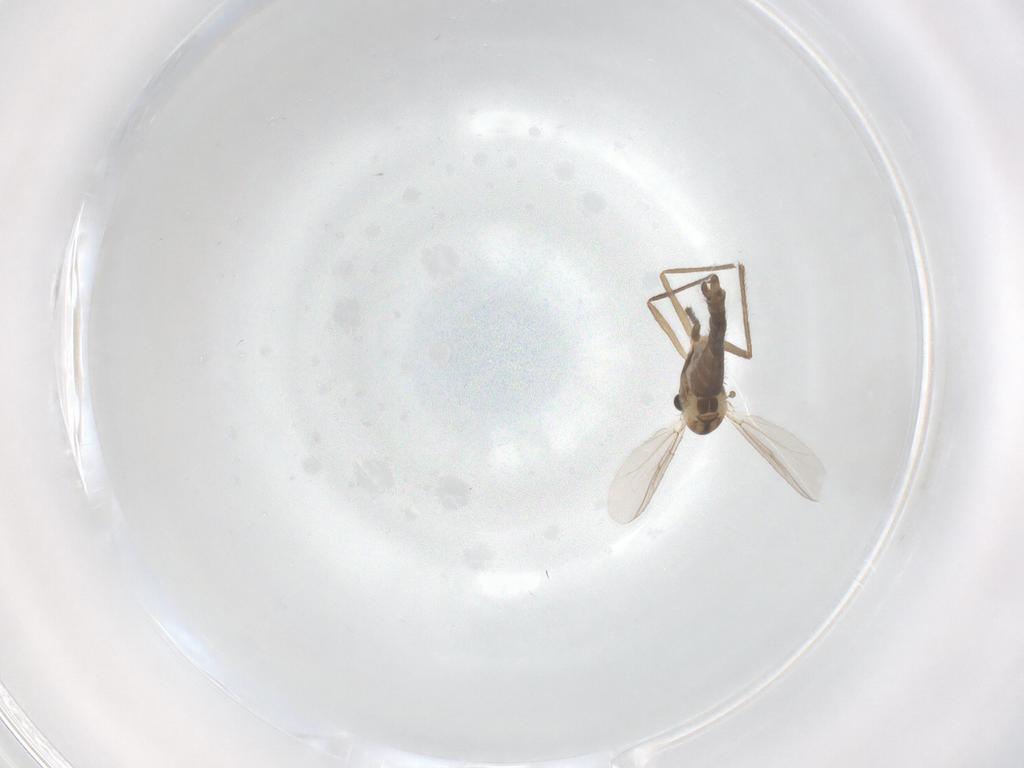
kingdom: Animalia
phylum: Arthropoda
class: Insecta
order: Diptera
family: Chironomidae
